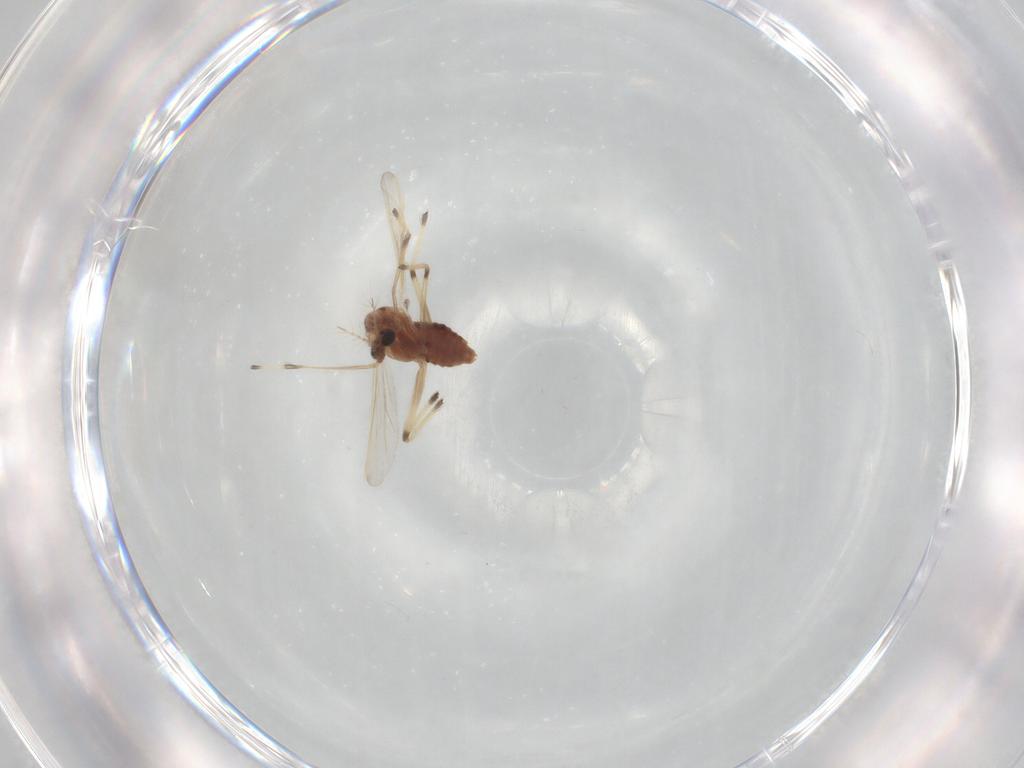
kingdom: Animalia
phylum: Arthropoda
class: Insecta
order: Diptera
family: Chironomidae
